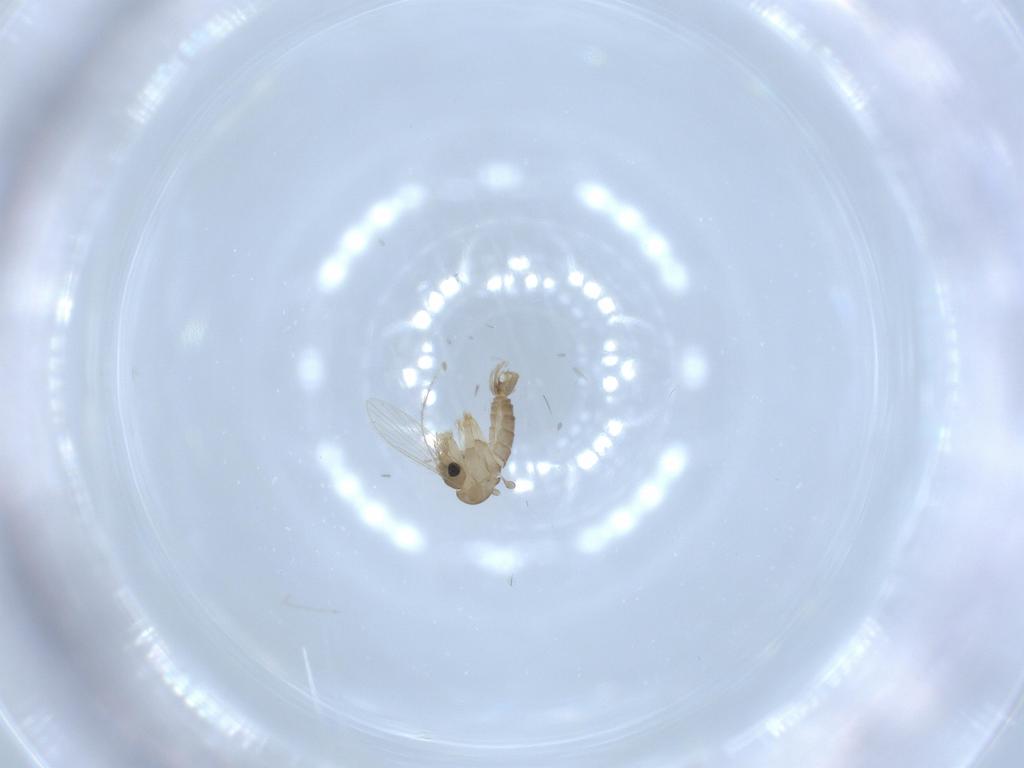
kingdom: Animalia
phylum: Arthropoda
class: Insecta
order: Diptera
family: Psychodidae
